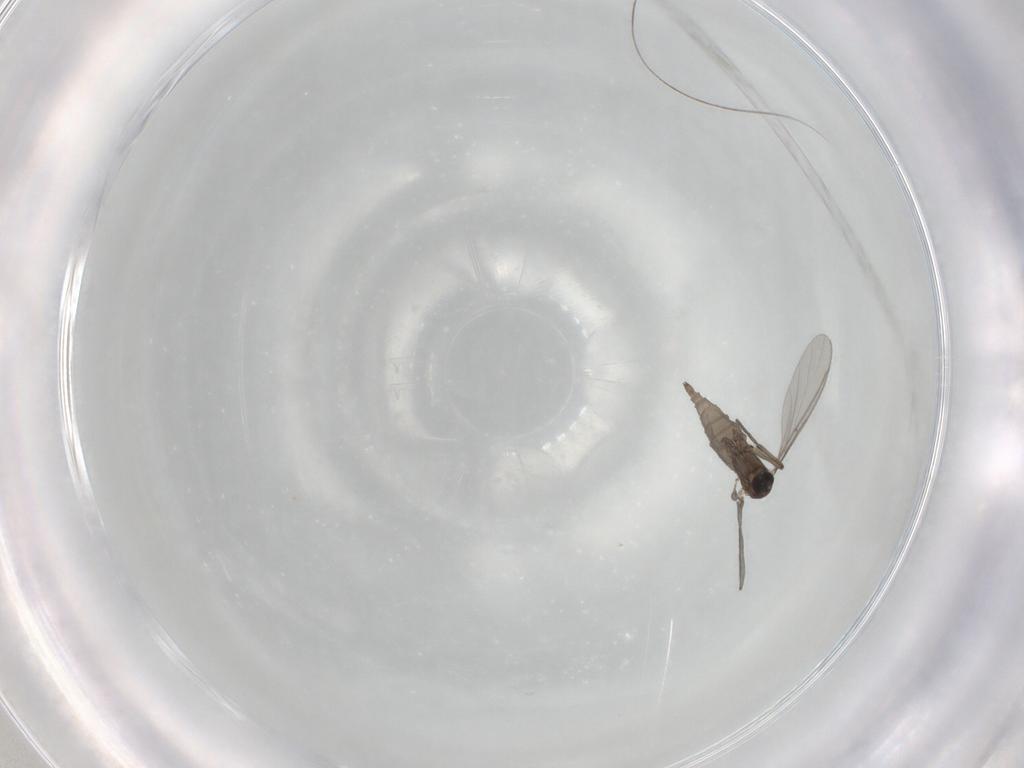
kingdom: Animalia
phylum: Arthropoda
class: Insecta
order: Diptera
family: Sciaridae
